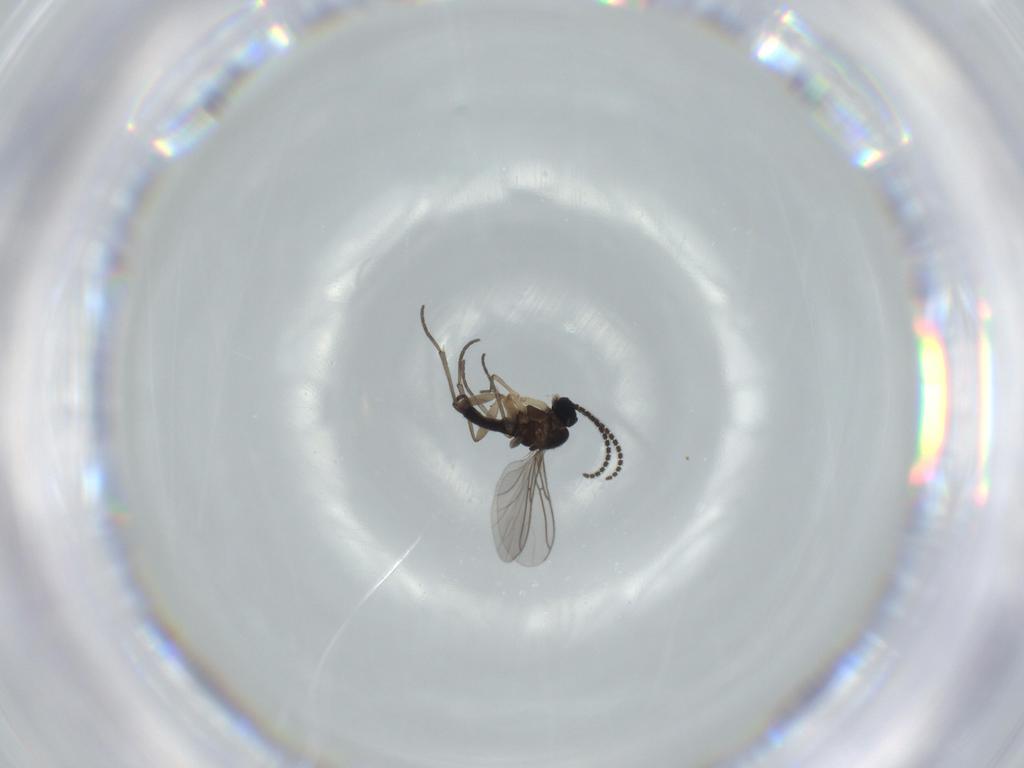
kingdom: Animalia
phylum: Arthropoda
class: Insecta
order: Diptera
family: Sciaridae
